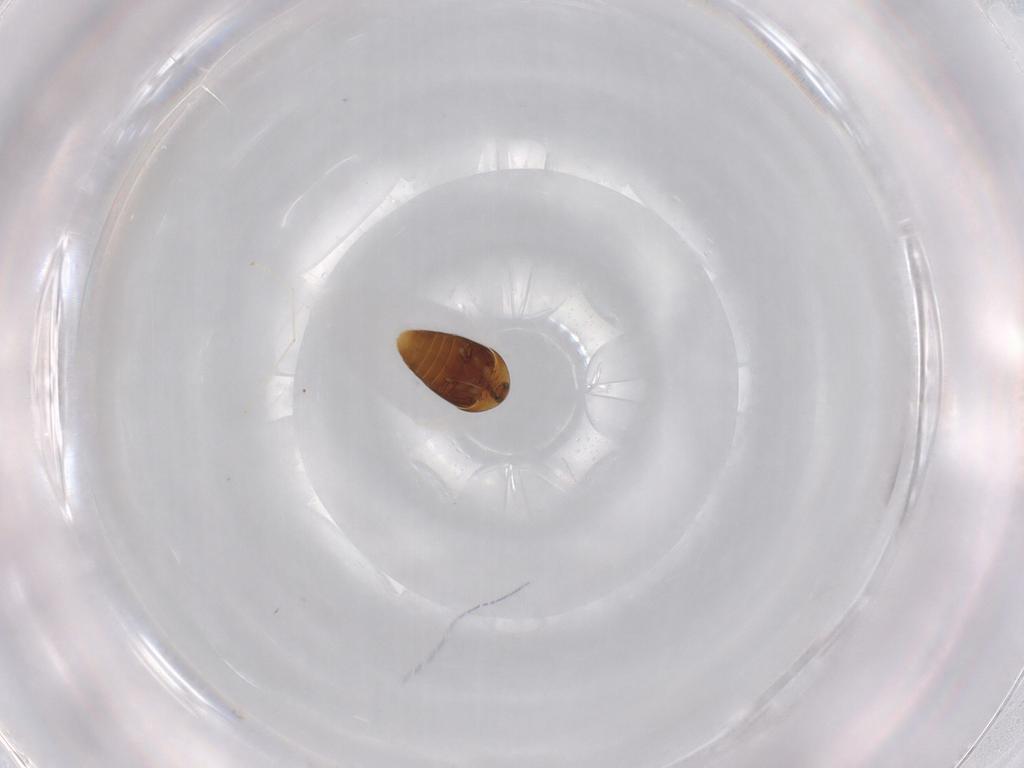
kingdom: Animalia
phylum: Arthropoda
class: Insecta
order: Coleoptera
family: Corylophidae
